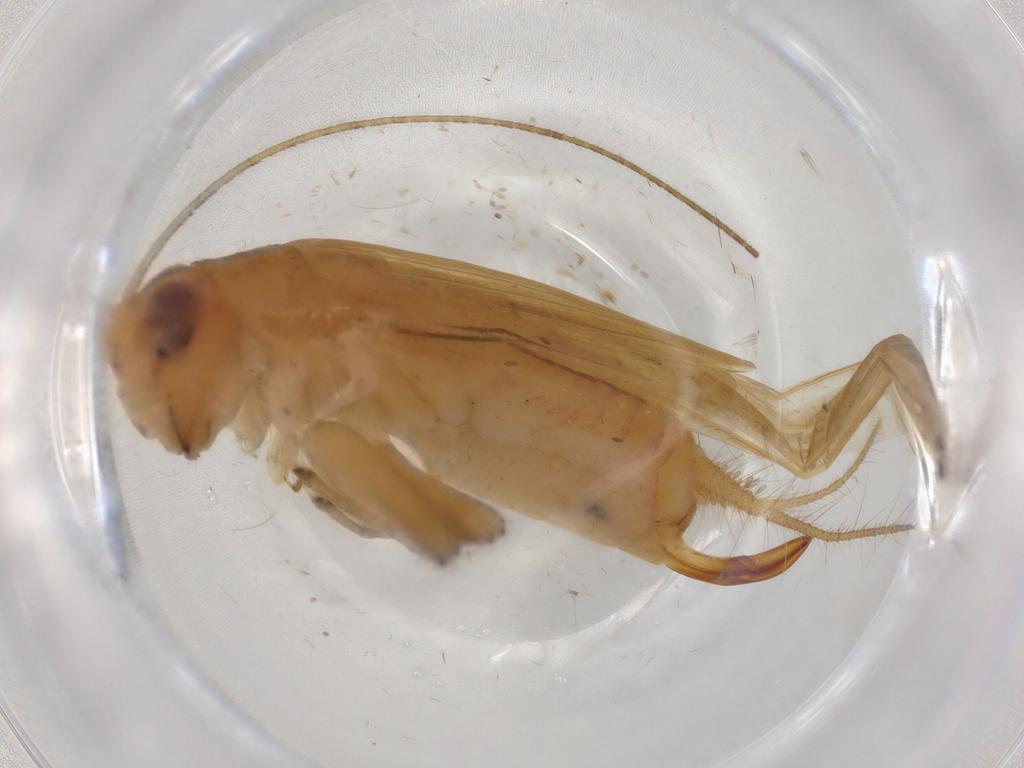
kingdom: Animalia
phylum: Arthropoda
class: Insecta
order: Orthoptera
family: Trigonidiidae
